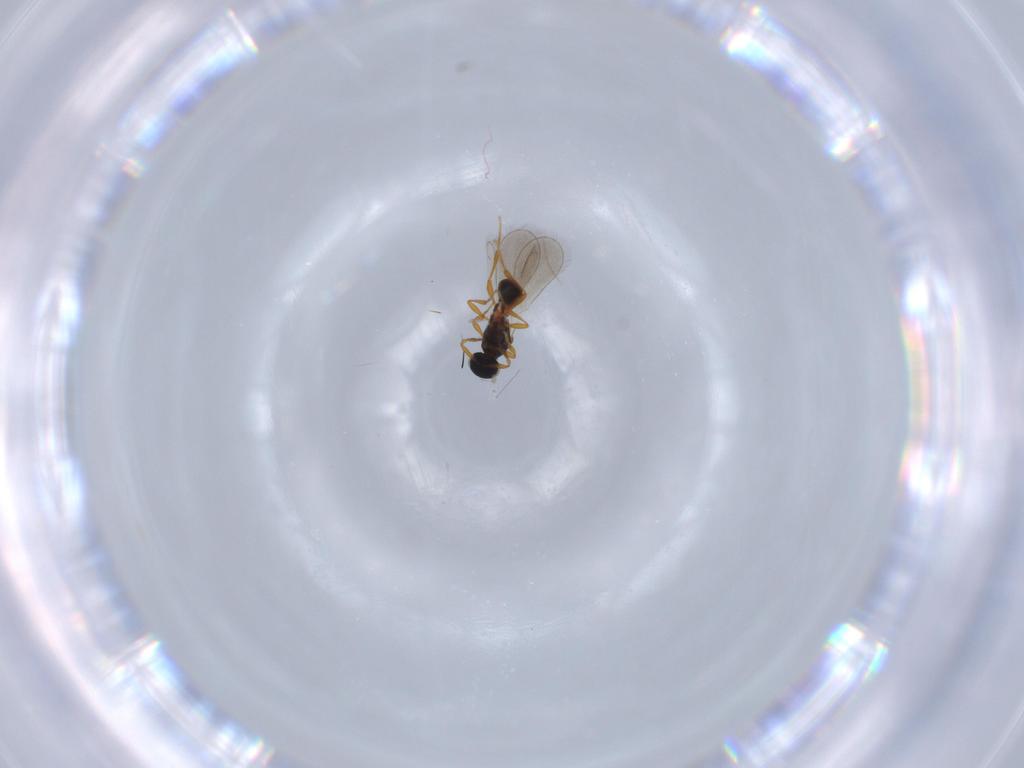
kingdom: Animalia
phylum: Arthropoda
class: Insecta
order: Hymenoptera
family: Platygastridae
